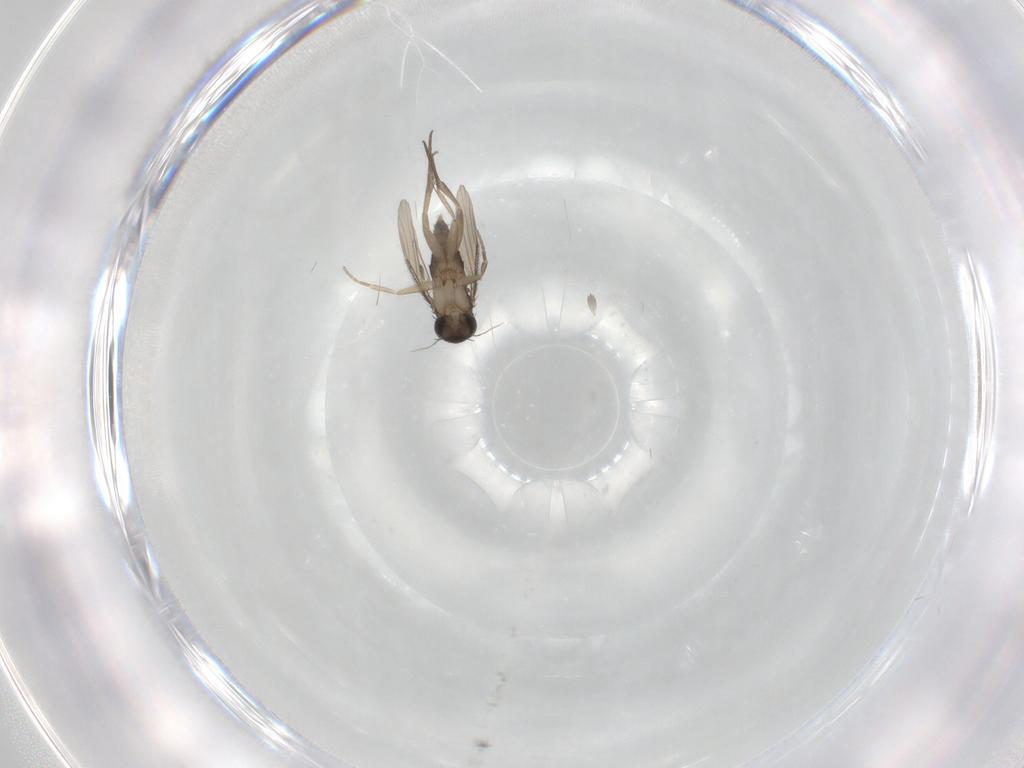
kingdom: Animalia
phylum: Arthropoda
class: Insecta
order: Diptera
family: Phoridae
